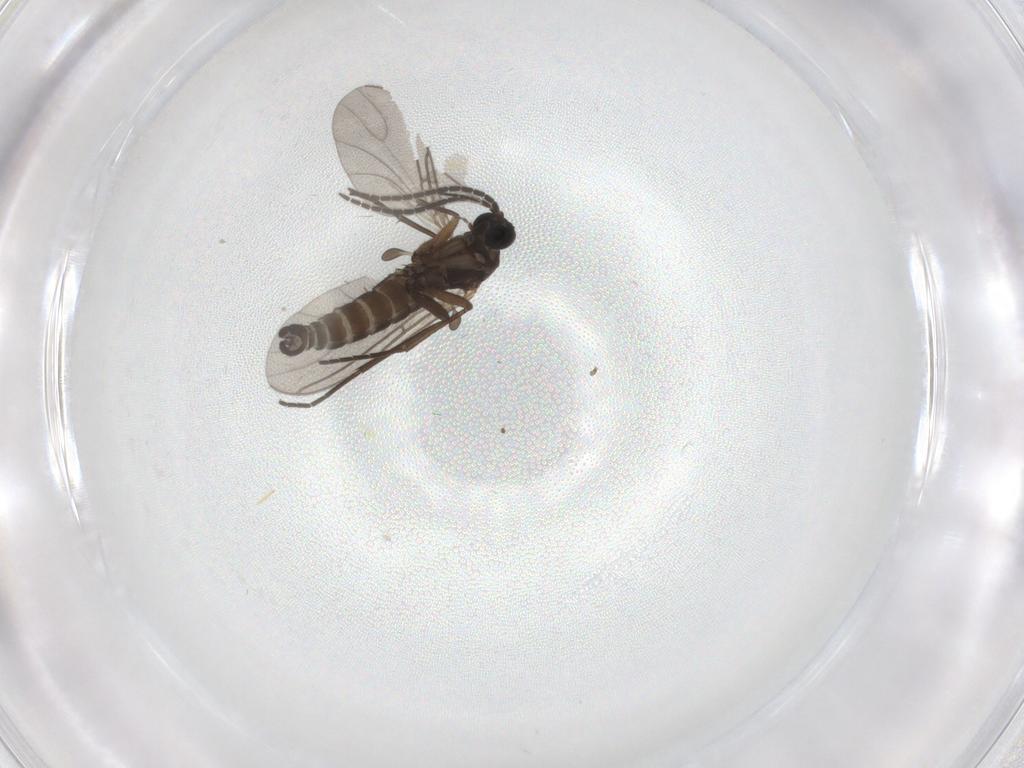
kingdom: Animalia
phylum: Arthropoda
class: Insecta
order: Diptera
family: Sciaridae
